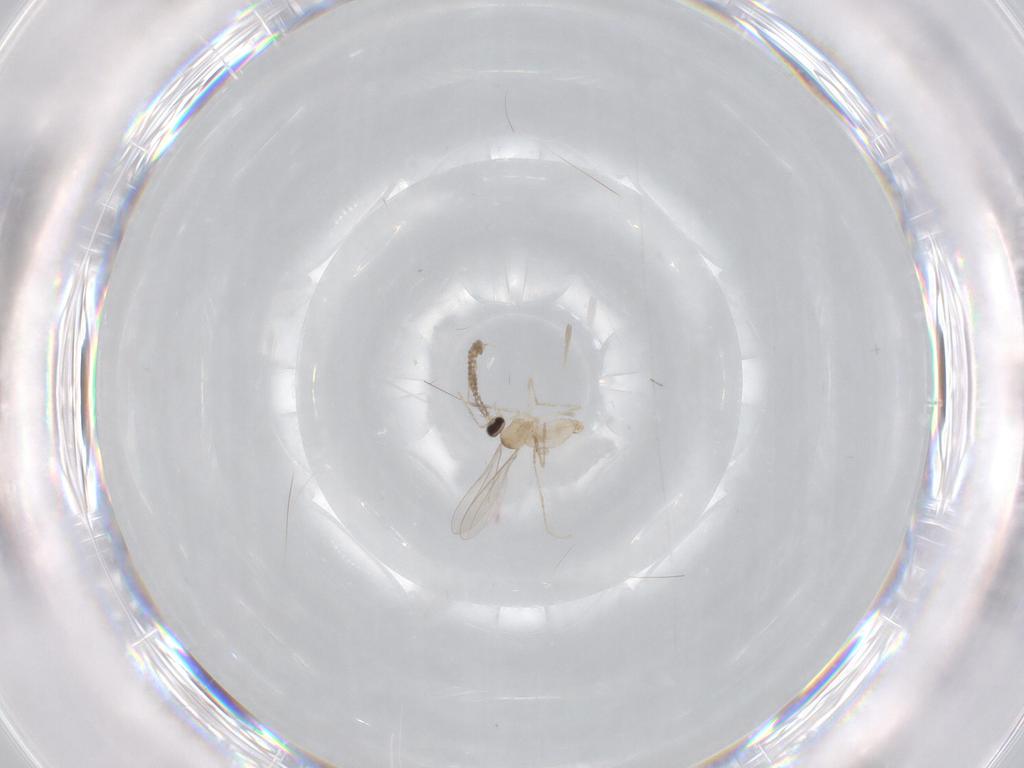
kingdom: Animalia
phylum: Arthropoda
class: Insecta
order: Diptera
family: Cecidomyiidae
